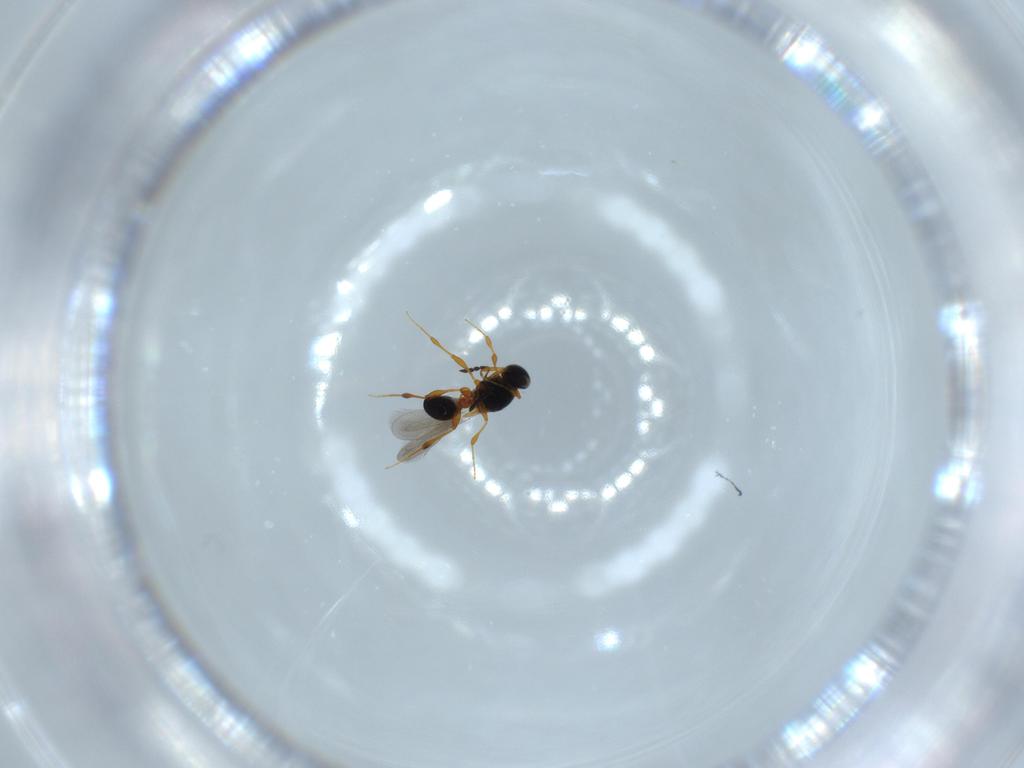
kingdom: Animalia
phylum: Arthropoda
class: Insecta
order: Hymenoptera
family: Platygastridae
